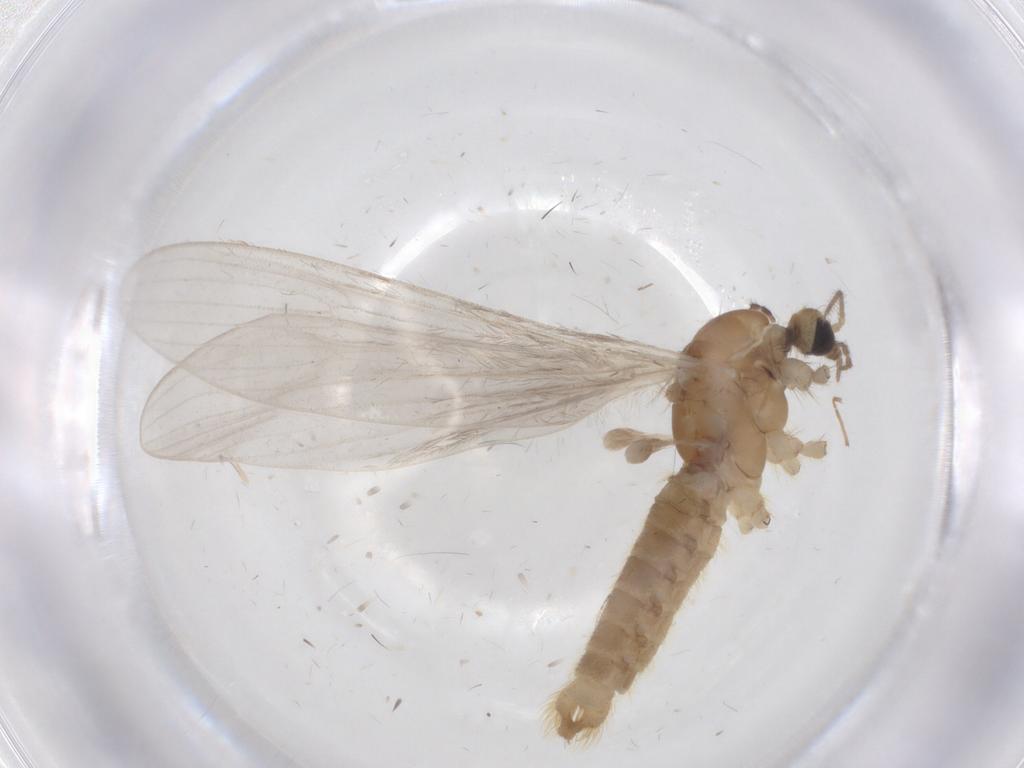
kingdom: Animalia
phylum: Arthropoda
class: Insecta
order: Diptera
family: Limoniidae
